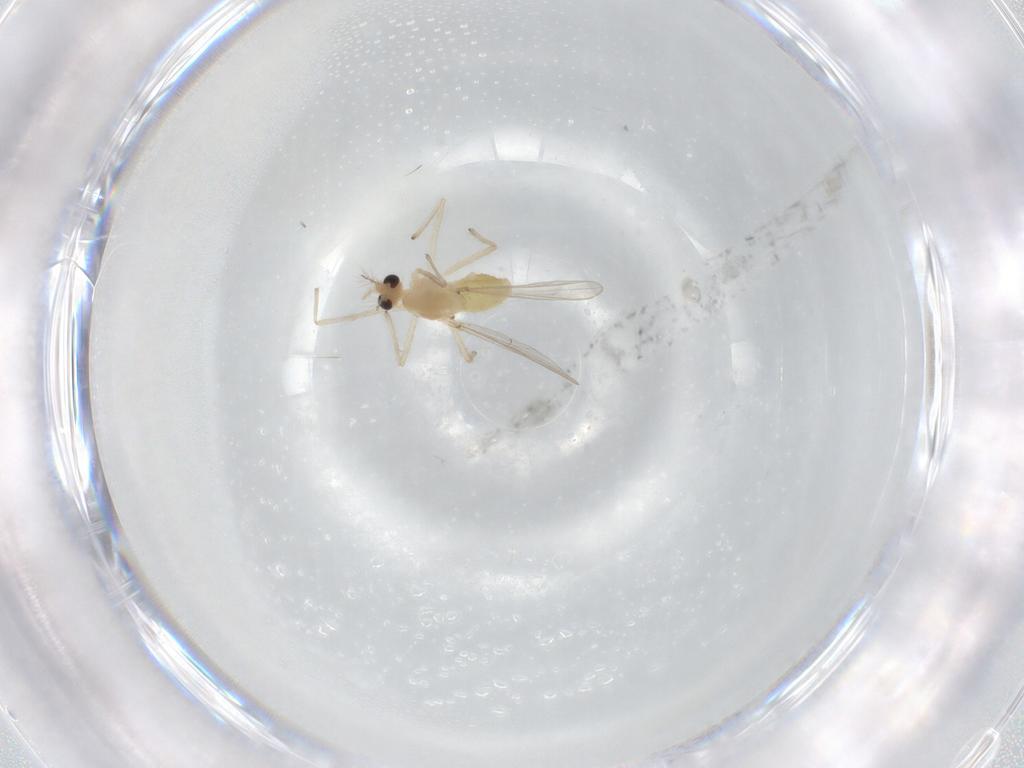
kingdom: Animalia
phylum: Arthropoda
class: Insecta
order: Diptera
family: Chironomidae
